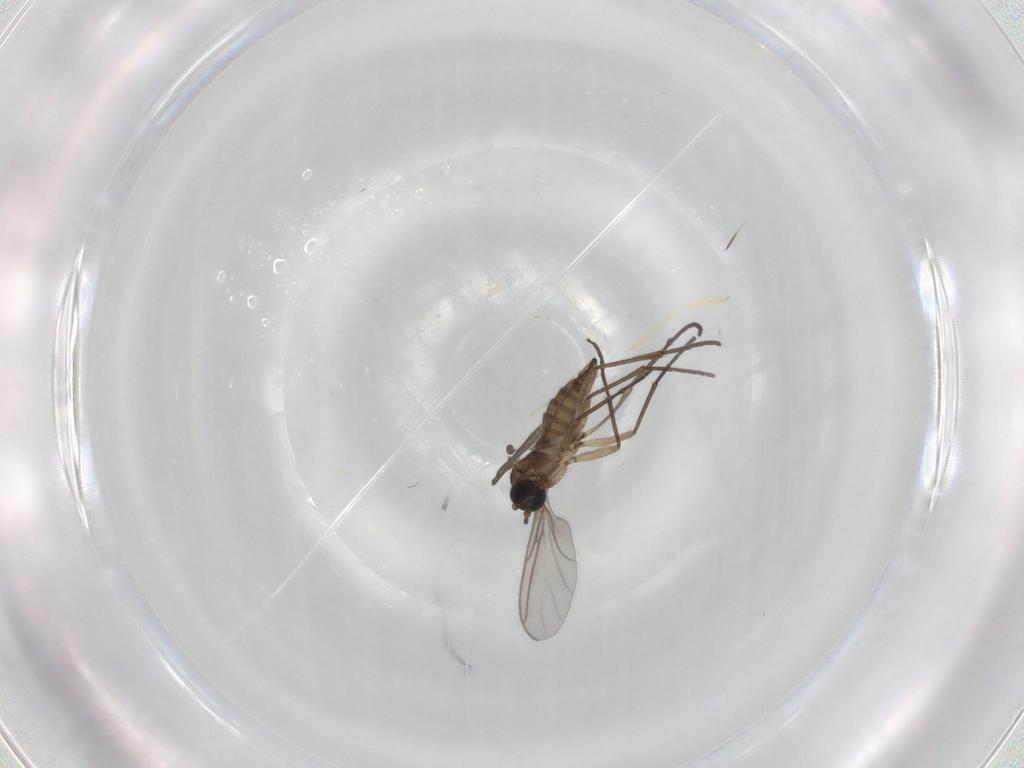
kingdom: Animalia
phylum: Arthropoda
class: Insecta
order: Diptera
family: Sciaridae
